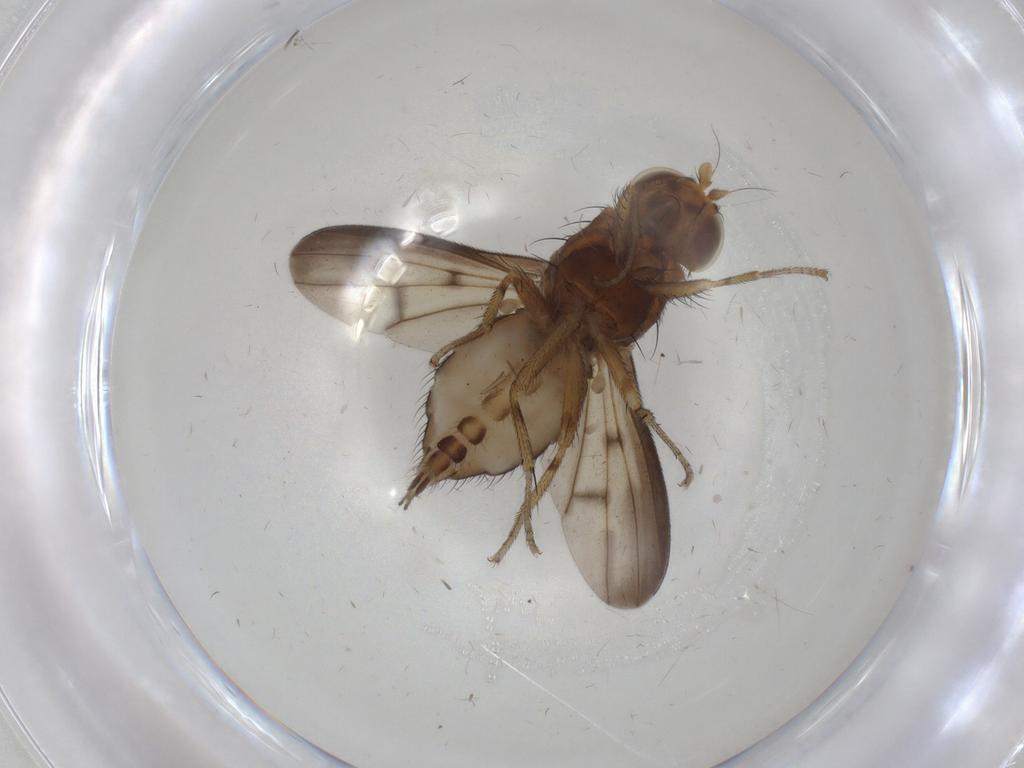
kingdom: Animalia
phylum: Arthropoda
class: Insecta
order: Diptera
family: Lauxaniidae
